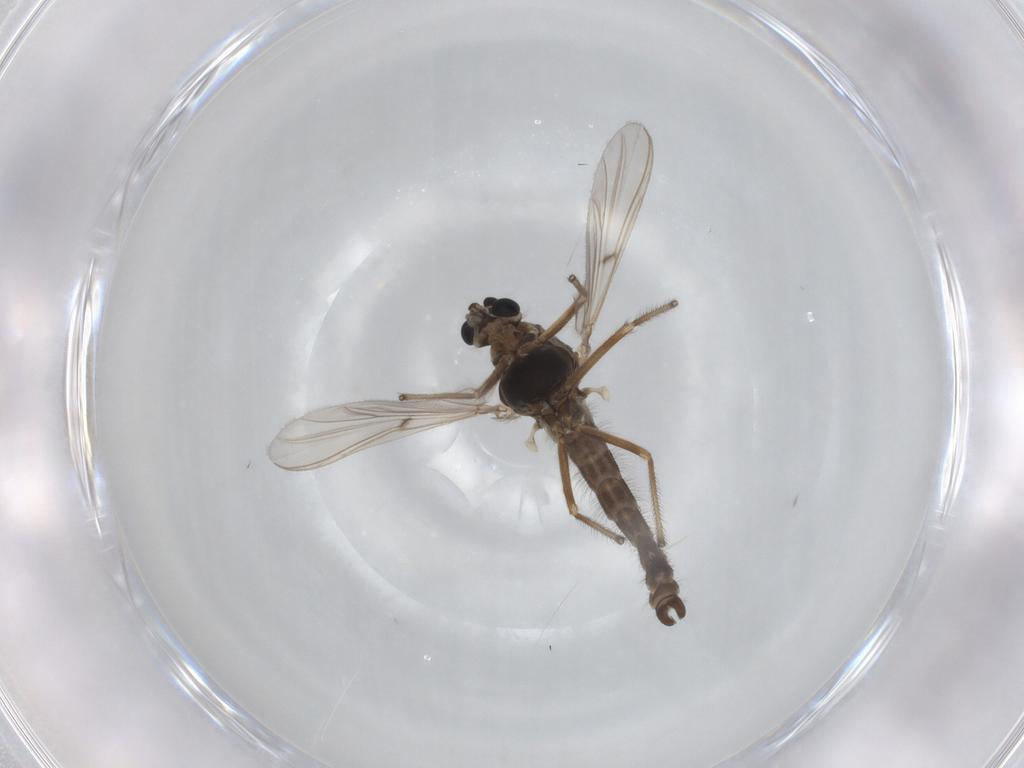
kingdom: Animalia
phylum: Arthropoda
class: Insecta
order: Diptera
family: Chironomidae
